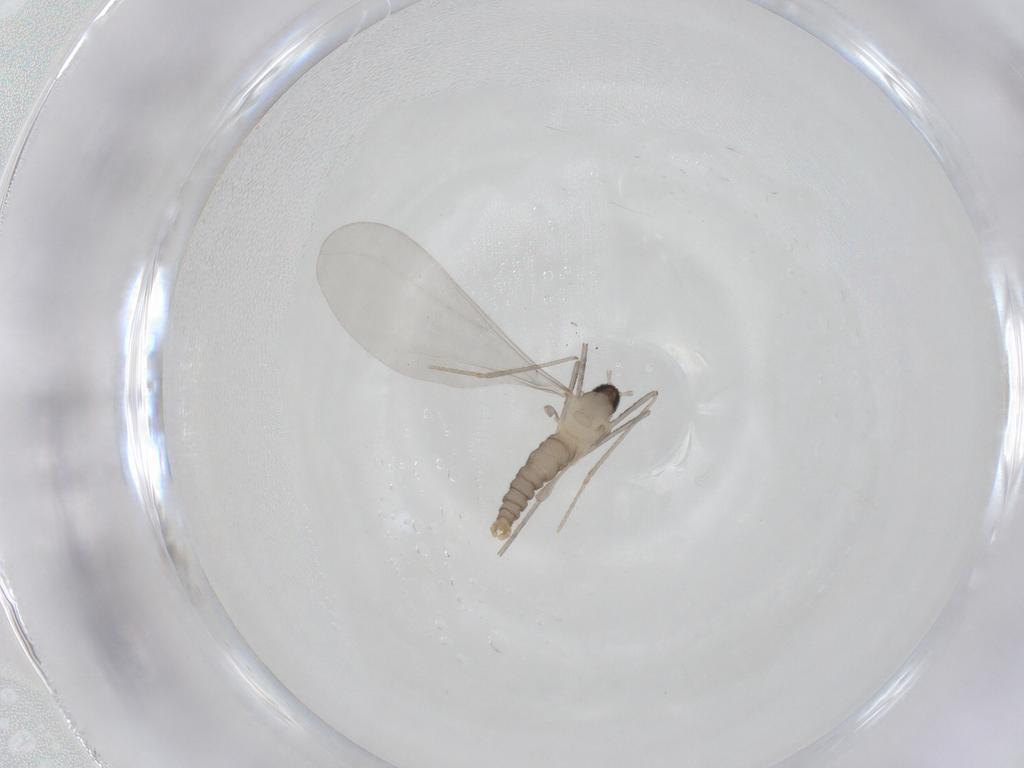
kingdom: Animalia
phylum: Arthropoda
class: Insecta
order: Diptera
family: Cecidomyiidae
